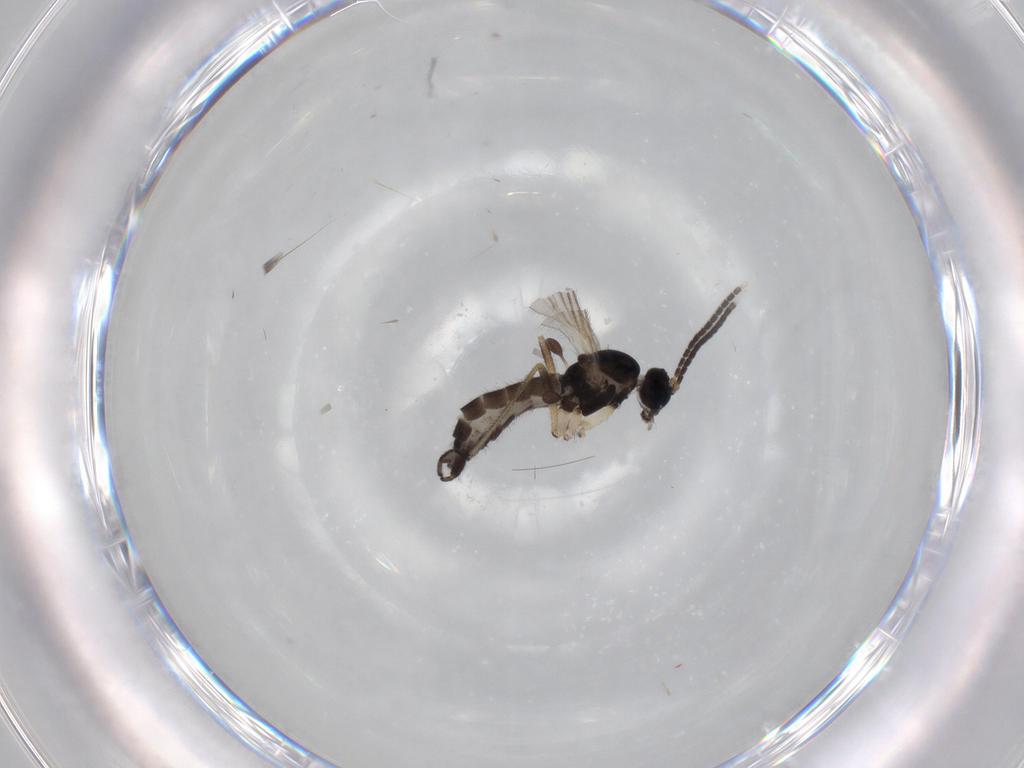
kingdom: Animalia
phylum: Arthropoda
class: Insecta
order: Diptera
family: Sciaridae
